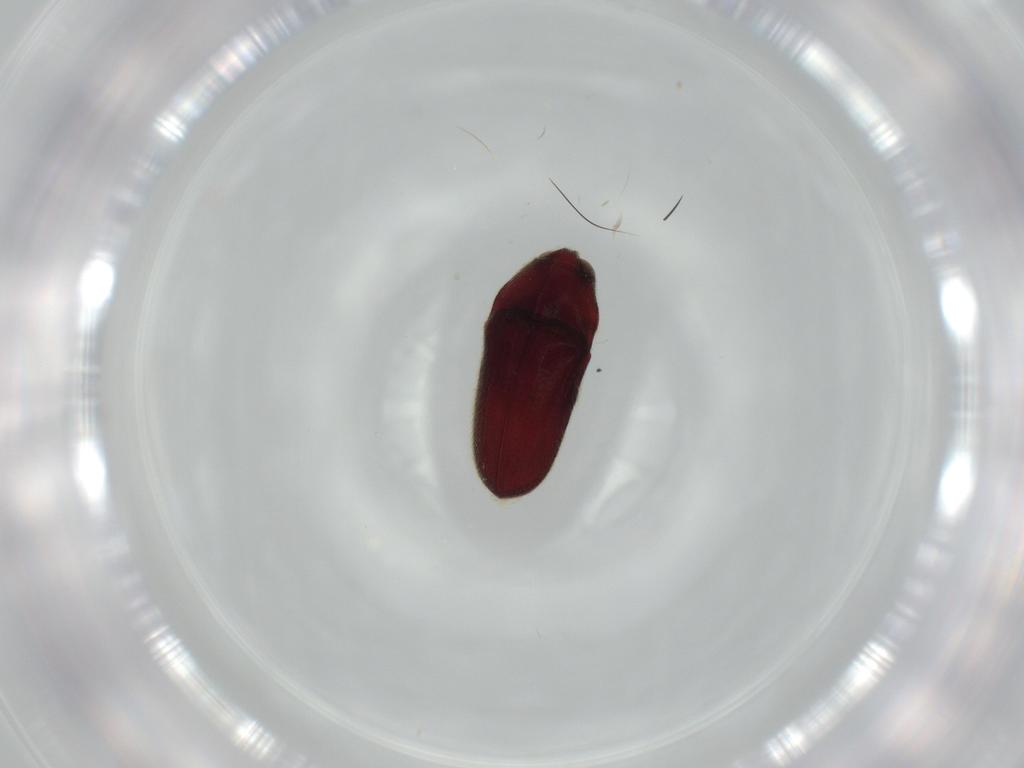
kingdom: Animalia
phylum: Arthropoda
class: Insecta
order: Coleoptera
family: Throscidae
